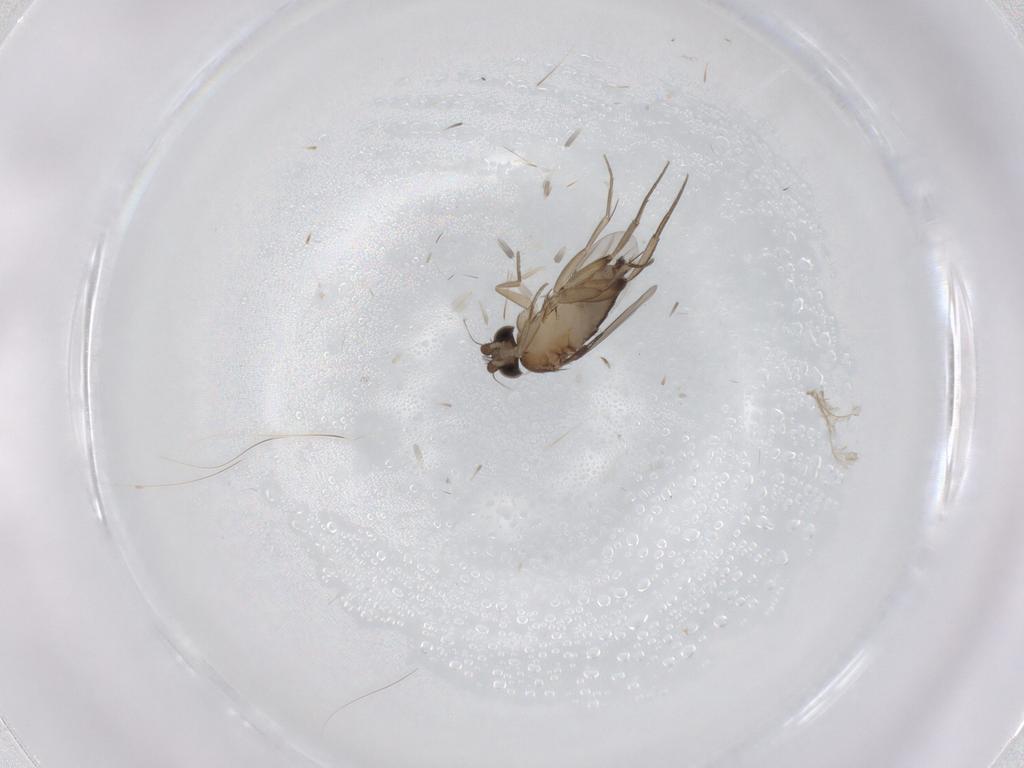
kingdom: Animalia
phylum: Arthropoda
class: Insecta
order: Diptera
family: Phoridae
